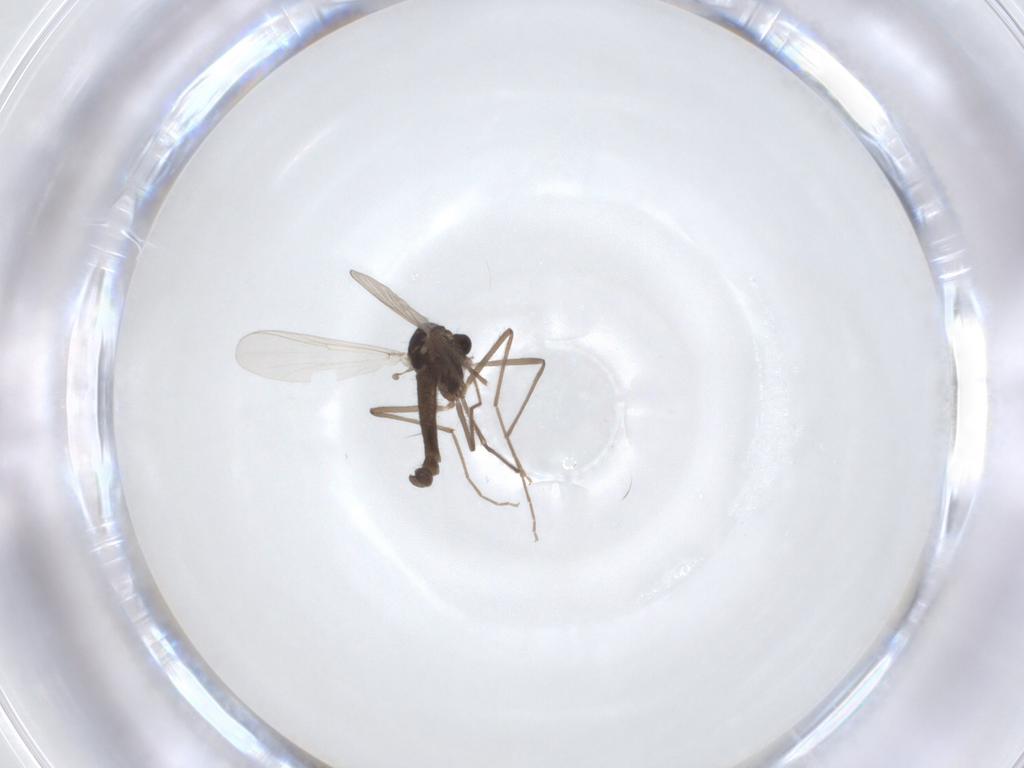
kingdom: Animalia
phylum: Arthropoda
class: Insecta
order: Diptera
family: Chironomidae
